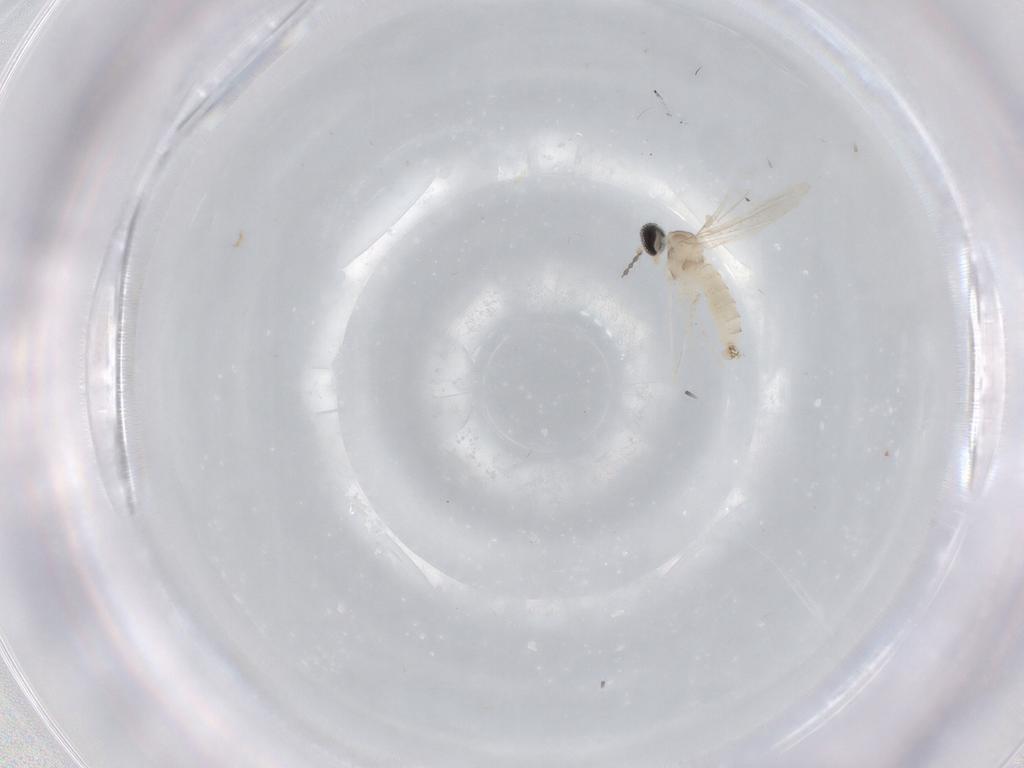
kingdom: Animalia
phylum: Arthropoda
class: Insecta
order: Diptera
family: Cecidomyiidae
